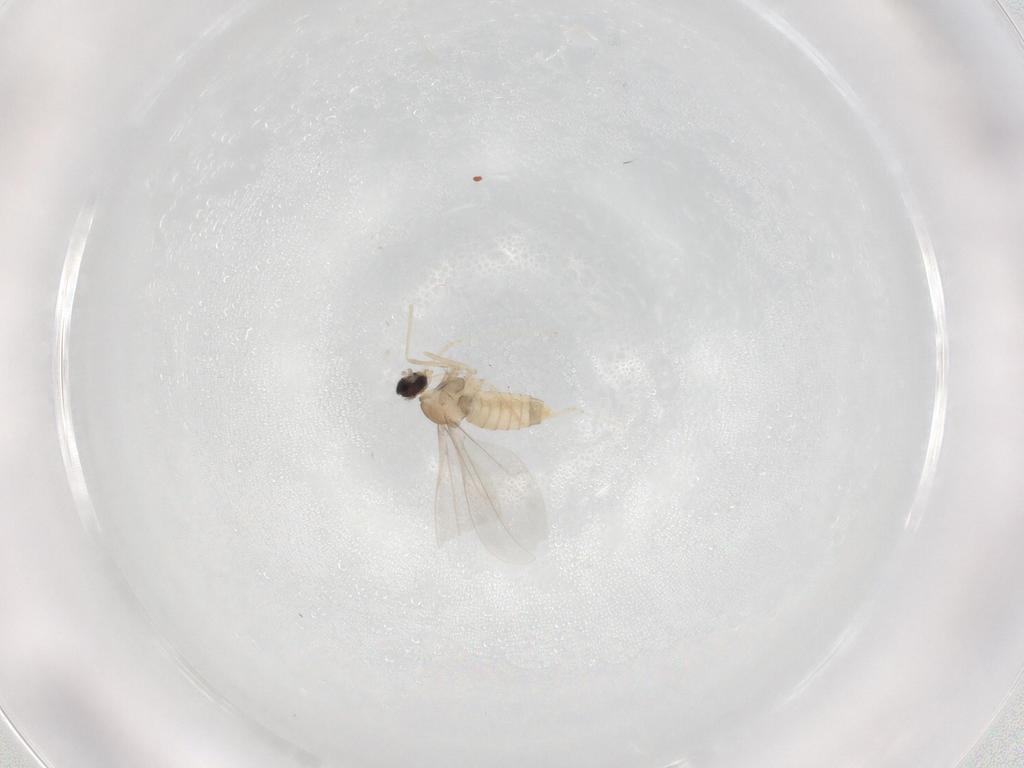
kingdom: Animalia
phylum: Arthropoda
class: Insecta
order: Diptera
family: Cecidomyiidae
